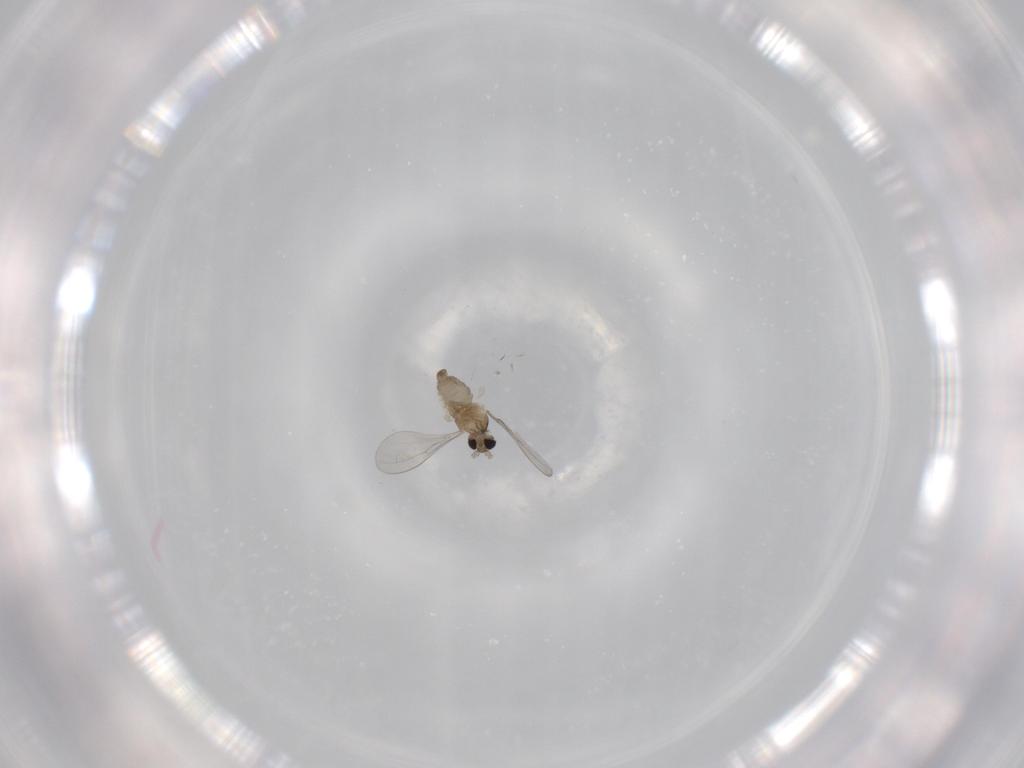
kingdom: Animalia
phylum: Arthropoda
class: Insecta
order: Diptera
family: Cecidomyiidae
